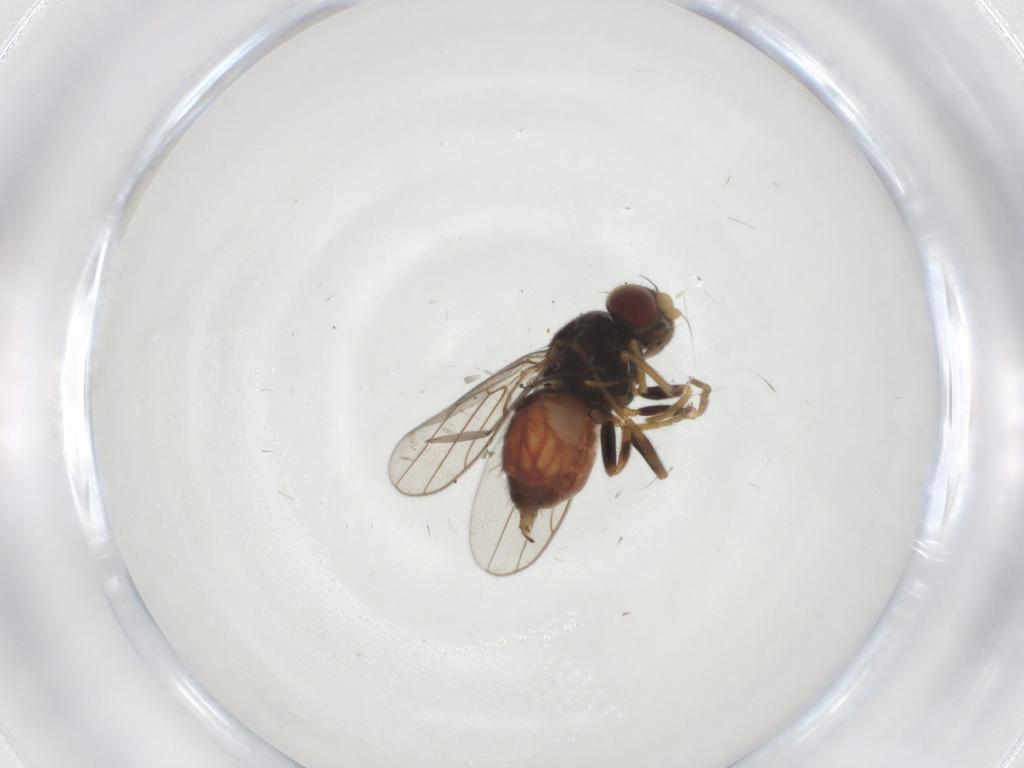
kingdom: Animalia
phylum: Arthropoda
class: Insecta
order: Diptera
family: Chloropidae
